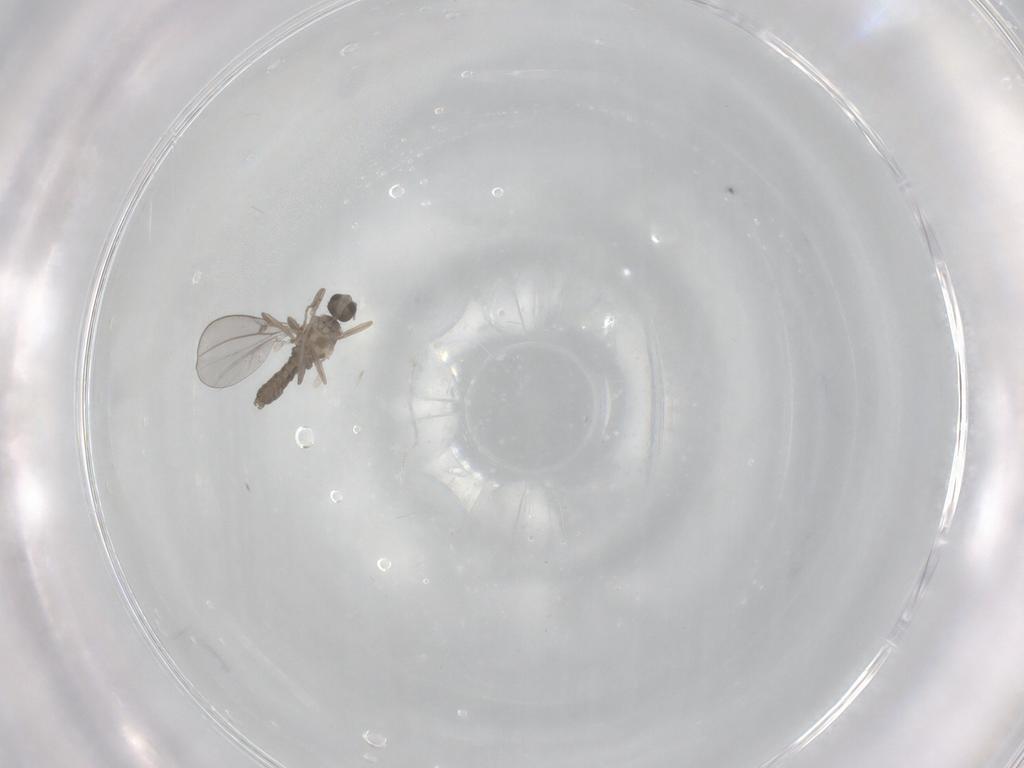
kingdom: Animalia
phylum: Arthropoda
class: Insecta
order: Diptera
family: Cecidomyiidae
